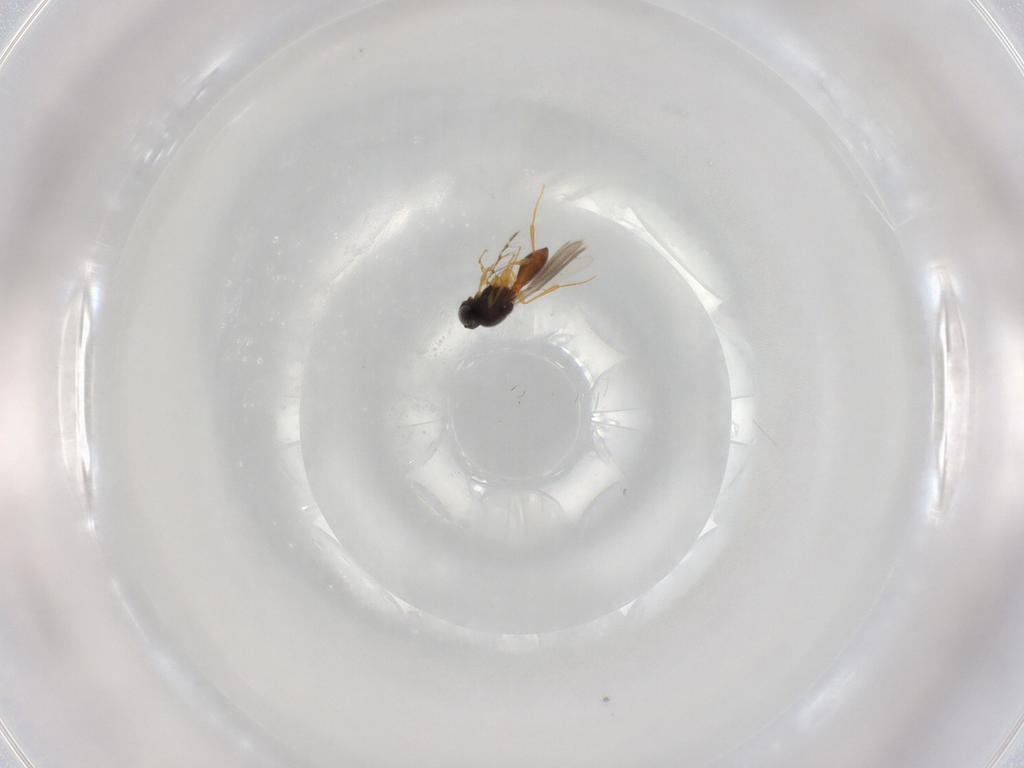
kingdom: Animalia
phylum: Arthropoda
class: Insecta
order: Hymenoptera
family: Platygastridae
